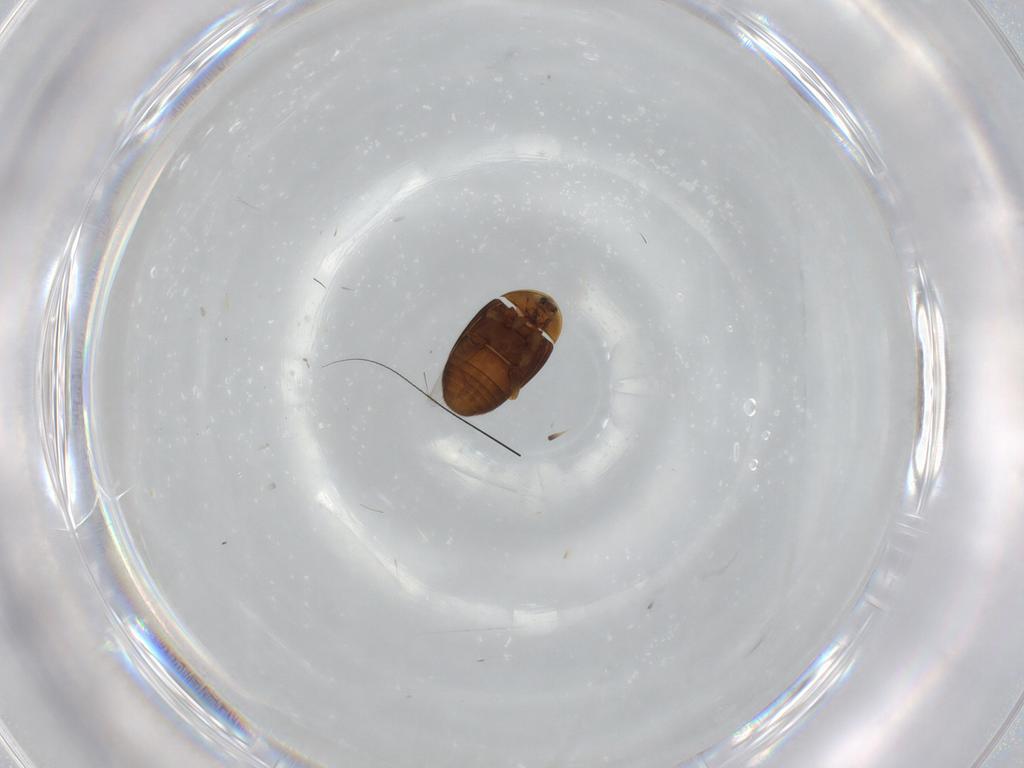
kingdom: Animalia
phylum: Arthropoda
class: Insecta
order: Coleoptera
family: Corylophidae
